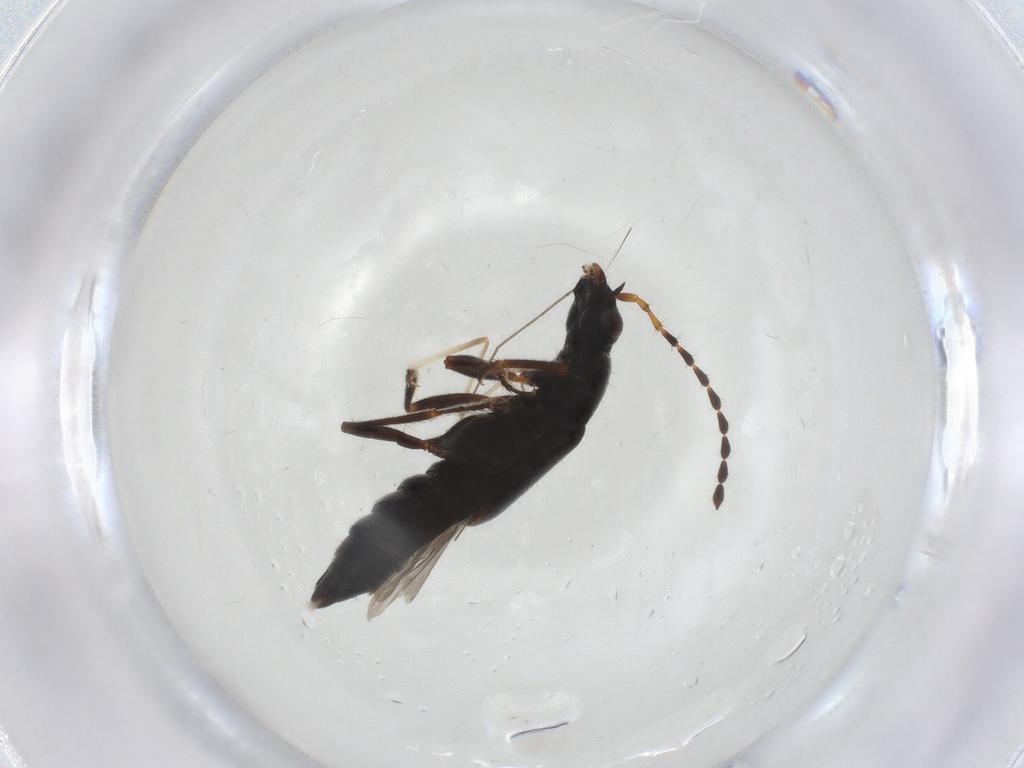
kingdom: Animalia
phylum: Arthropoda
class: Insecta
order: Coleoptera
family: Staphylinidae
